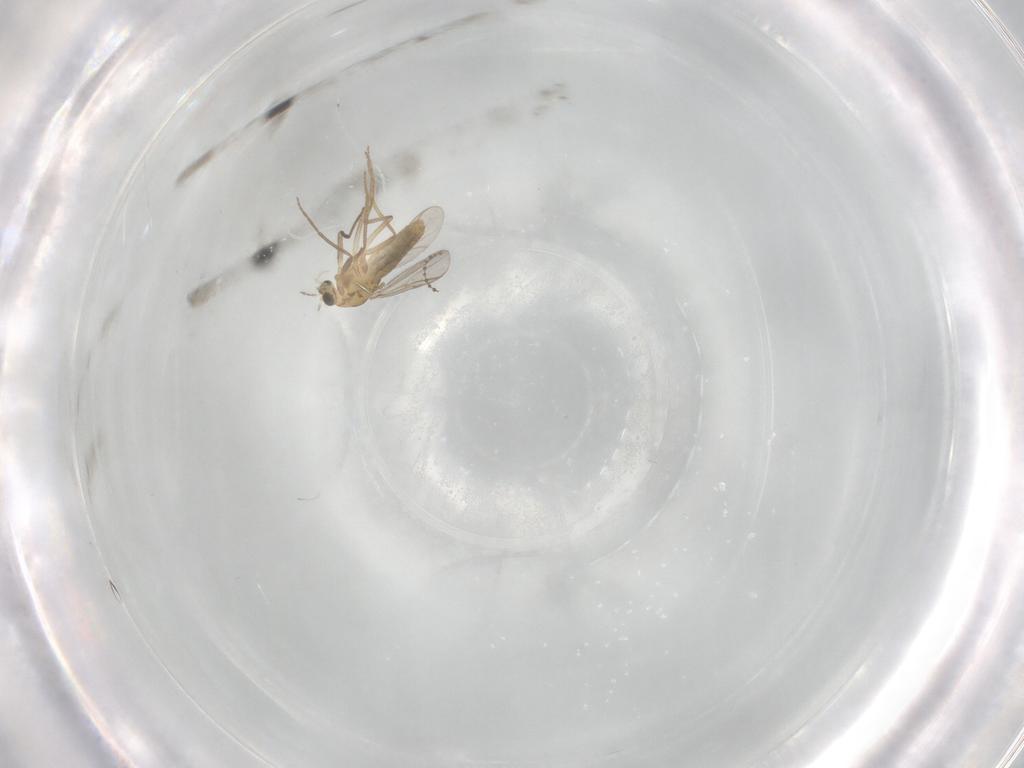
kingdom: Animalia
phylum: Arthropoda
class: Insecta
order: Diptera
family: Chironomidae
